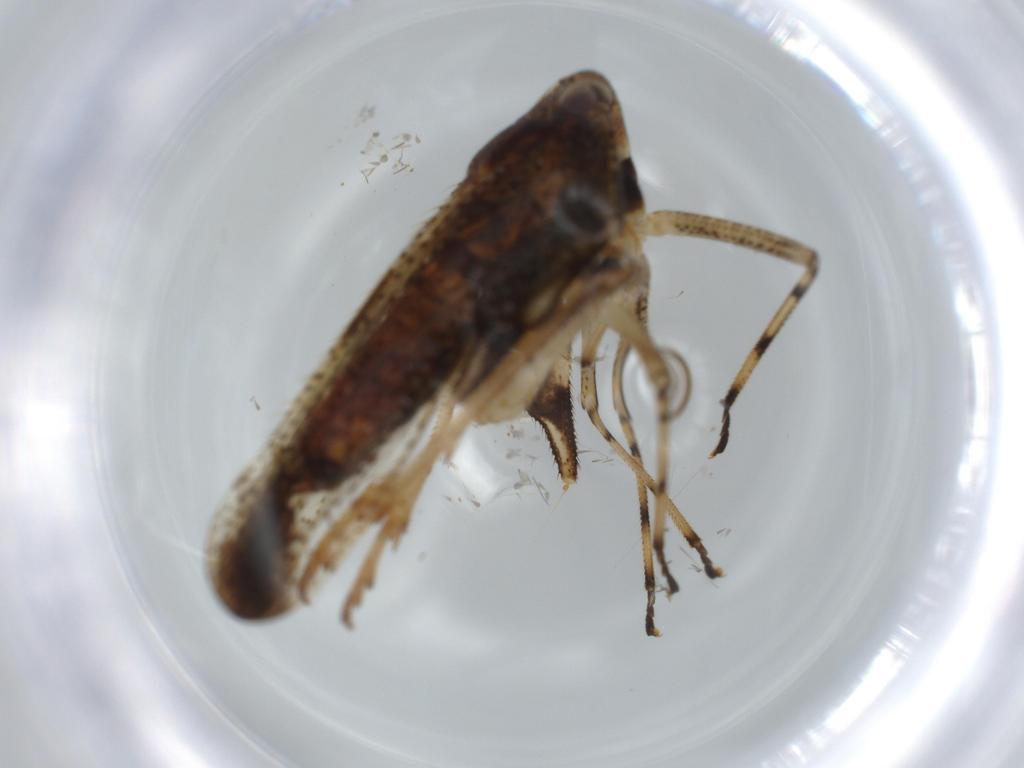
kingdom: Animalia
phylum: Arthropoda
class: Insecta
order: Hemiptera
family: Delphacidae
